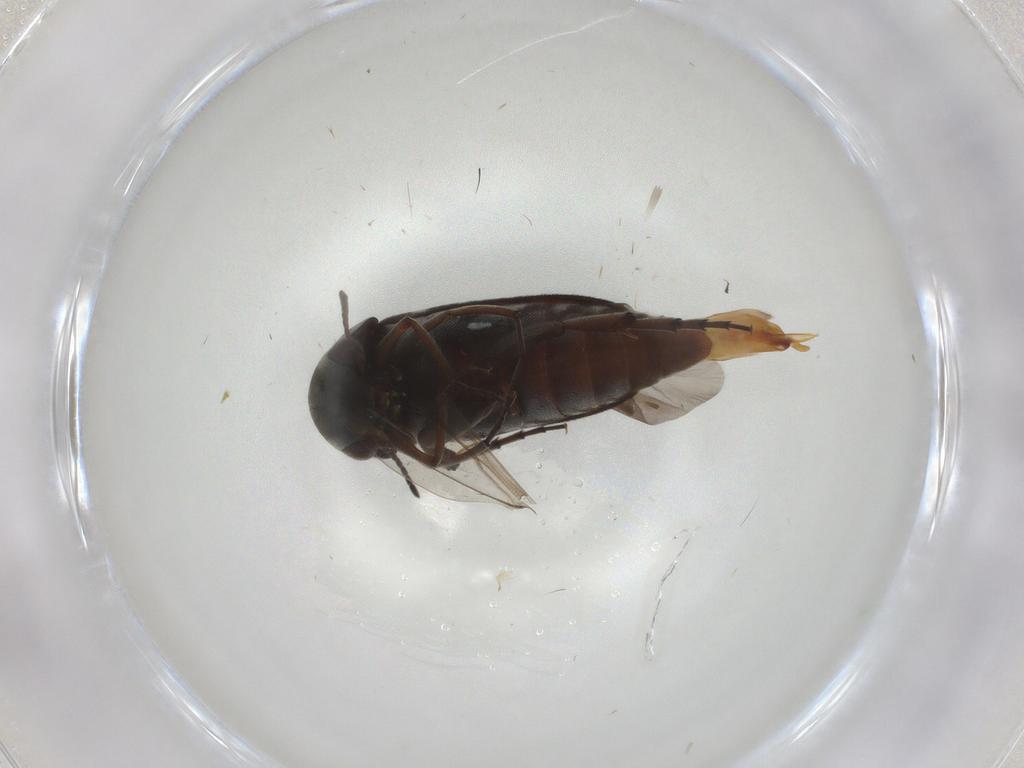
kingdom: Animalia
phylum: Arthropoda
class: Insecta
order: Coleoptera
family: Mordellidae
